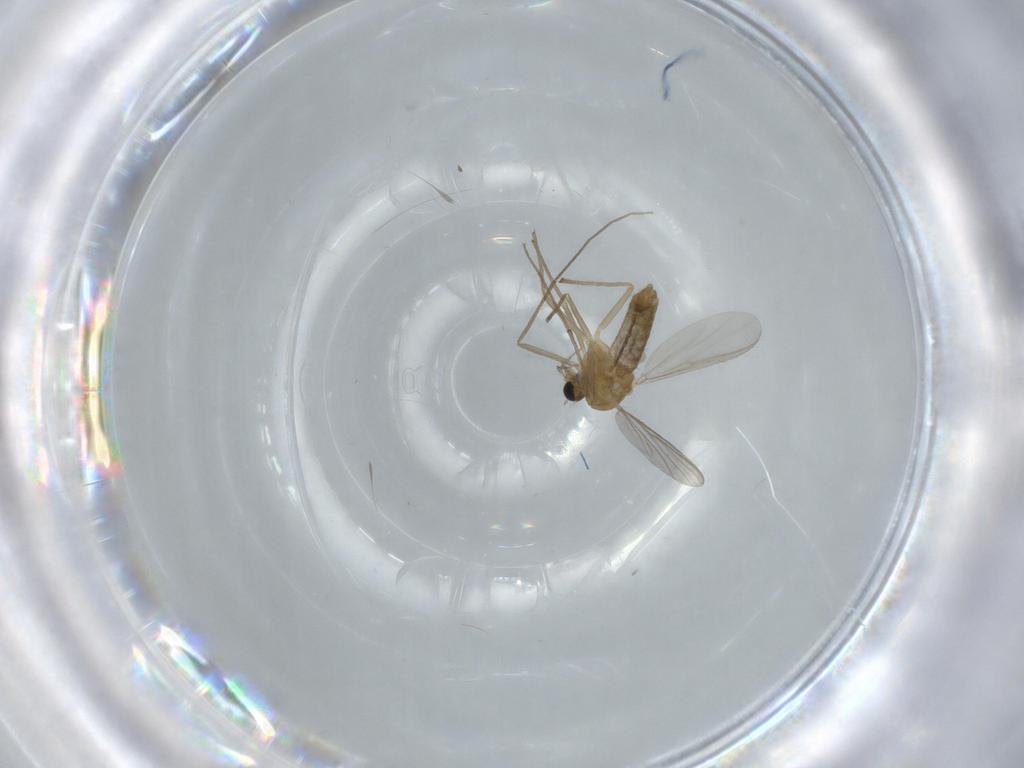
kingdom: Animalia
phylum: Arthropoda
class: Insecta
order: Diptera
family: Chironomidae
